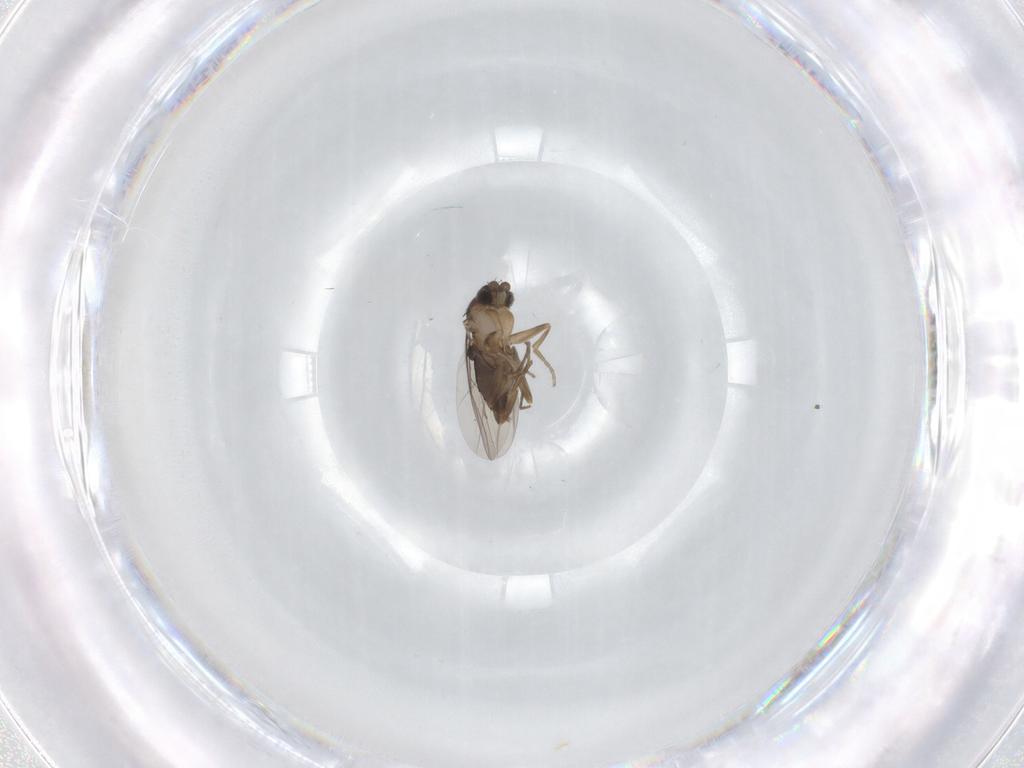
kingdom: Animalia
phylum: Arthropoda
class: Insecta
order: Diptera
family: Phoridae
